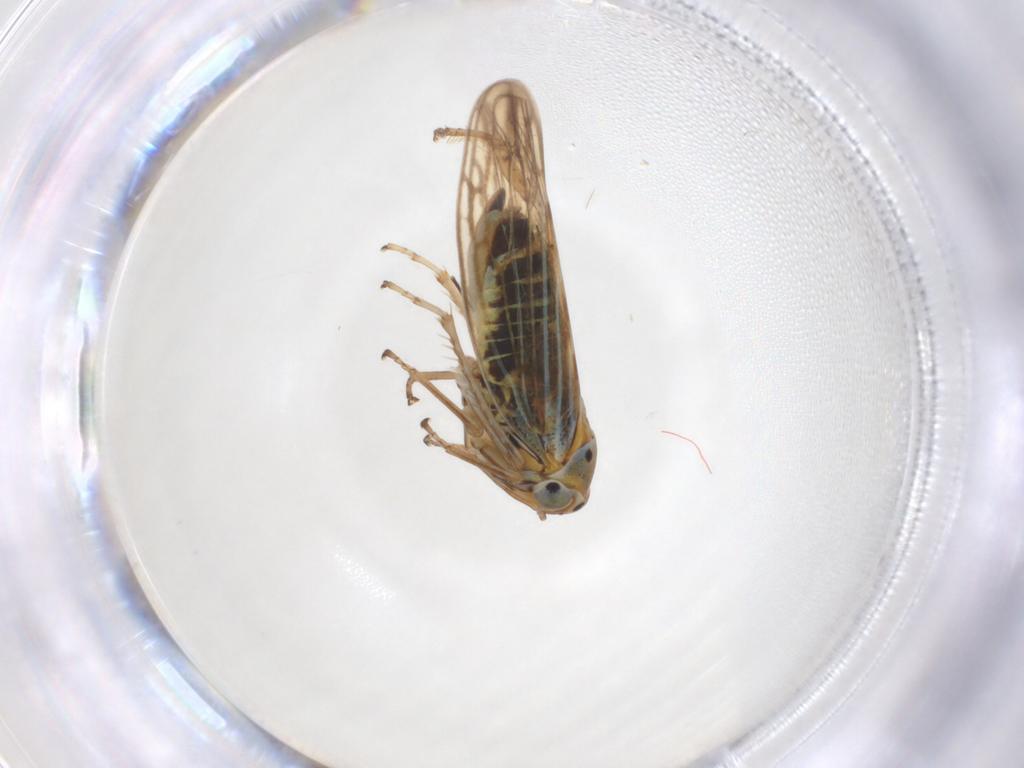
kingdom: Animalia
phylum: Arthropoda
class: Insecta
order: Hemiptera
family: Cicadellidae
